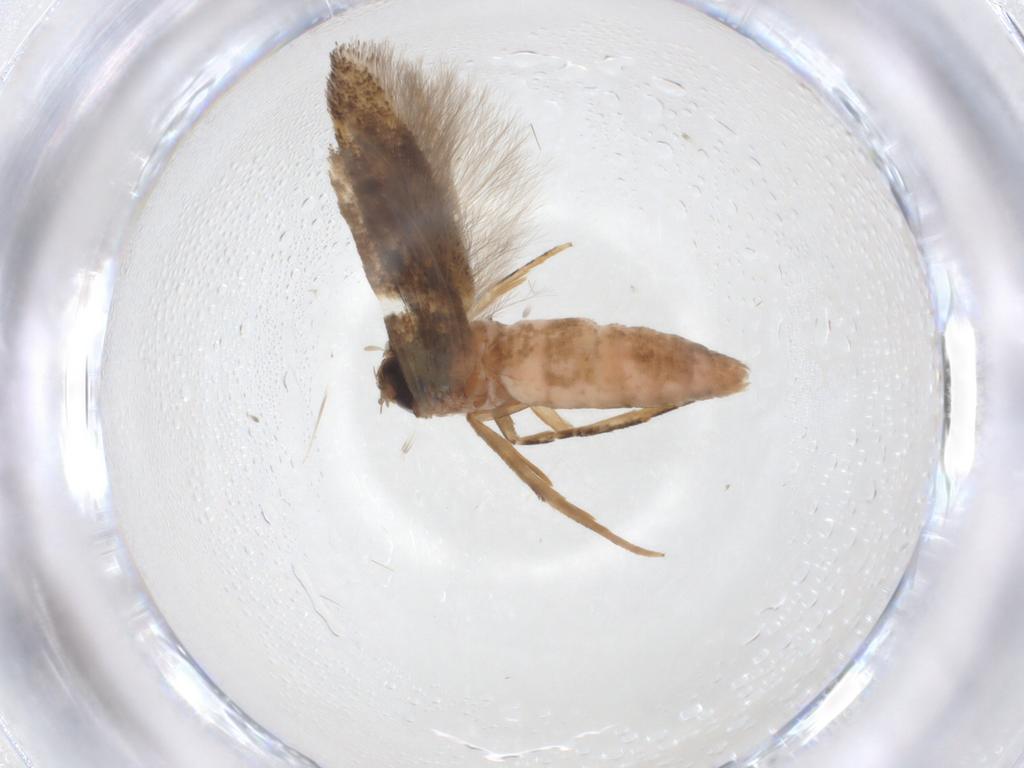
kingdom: Animalia
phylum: Arthropoda
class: Insecta
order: Lepidoptera
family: Gelechiidae
